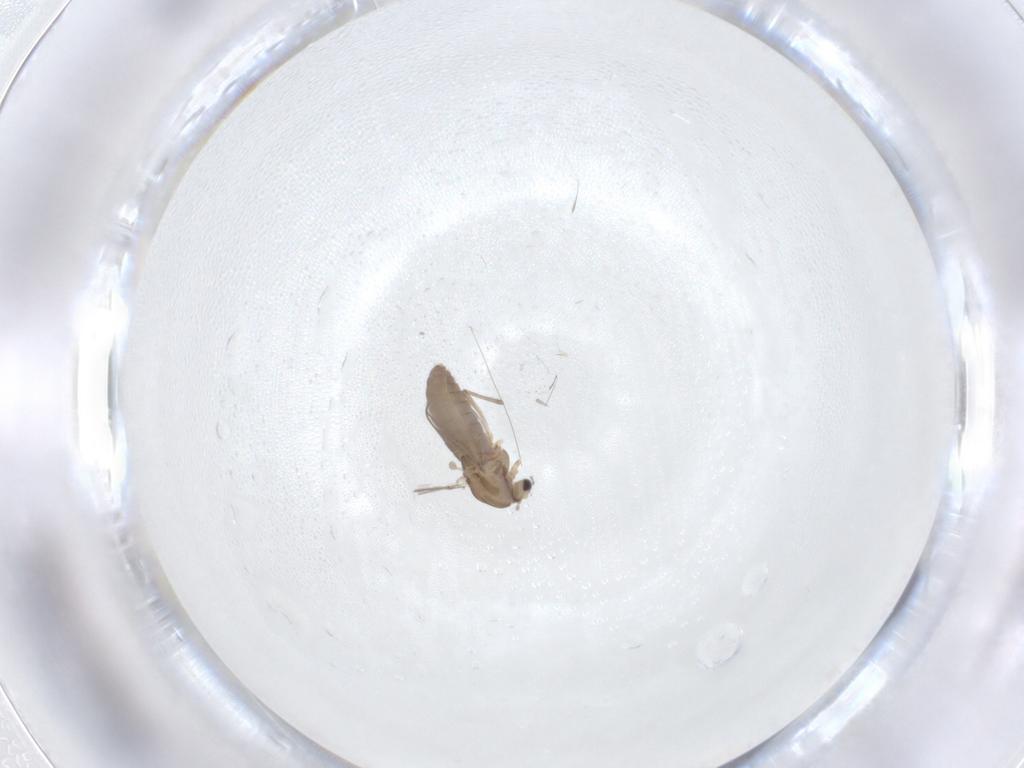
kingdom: Animalia
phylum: Arthropoda
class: Insecta
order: Diptera
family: Chironomidae
